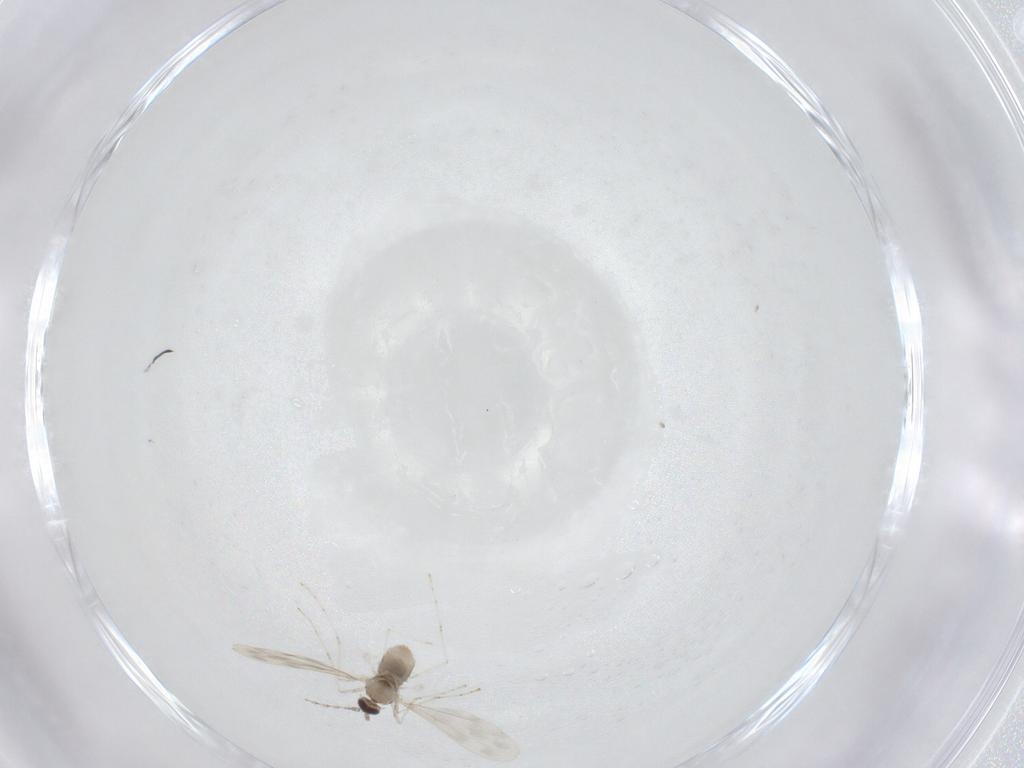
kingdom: Animalia
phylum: Arthropoda
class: Insecta
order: Diptera
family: Cecidomyiidae
